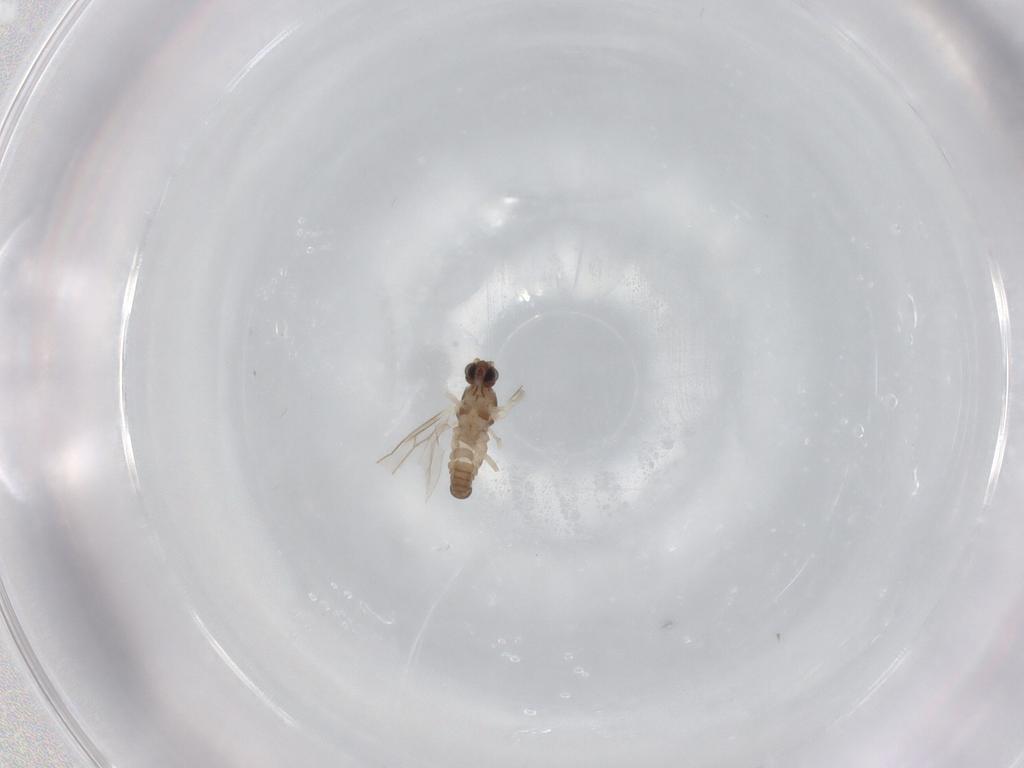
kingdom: Animalia
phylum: Arthropoda
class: Insecta
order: Diptera
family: Cecidomyiidae
